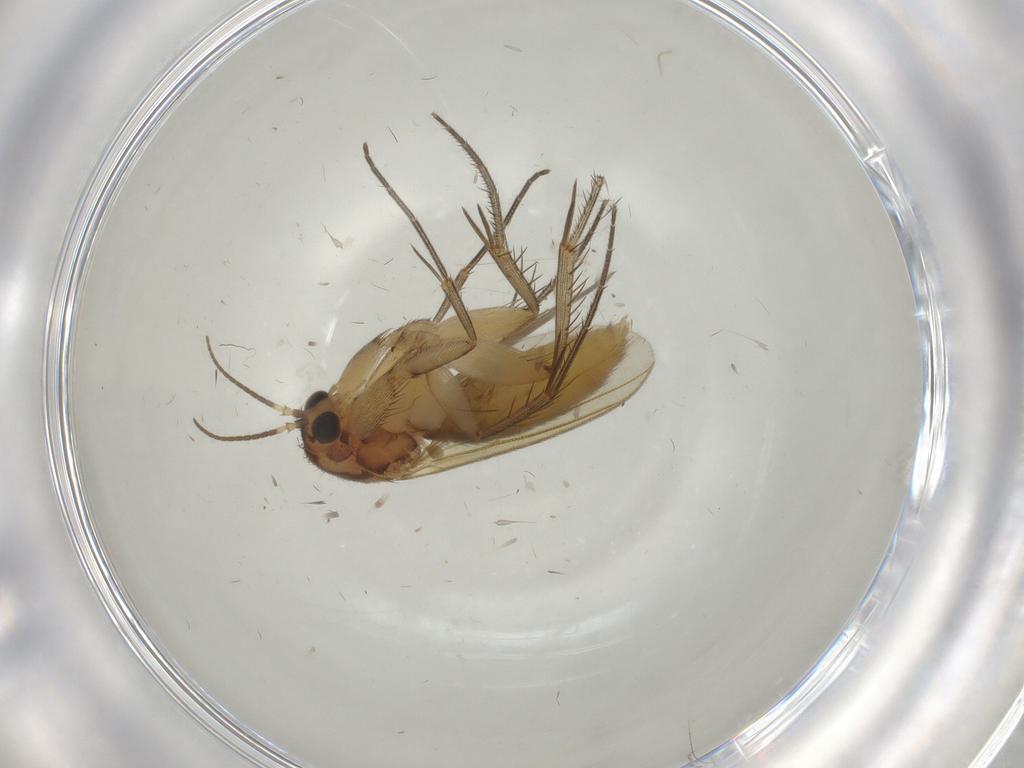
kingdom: Animalia
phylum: Arthropoda
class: Insecta
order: Diptera
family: Mycetophilidae
